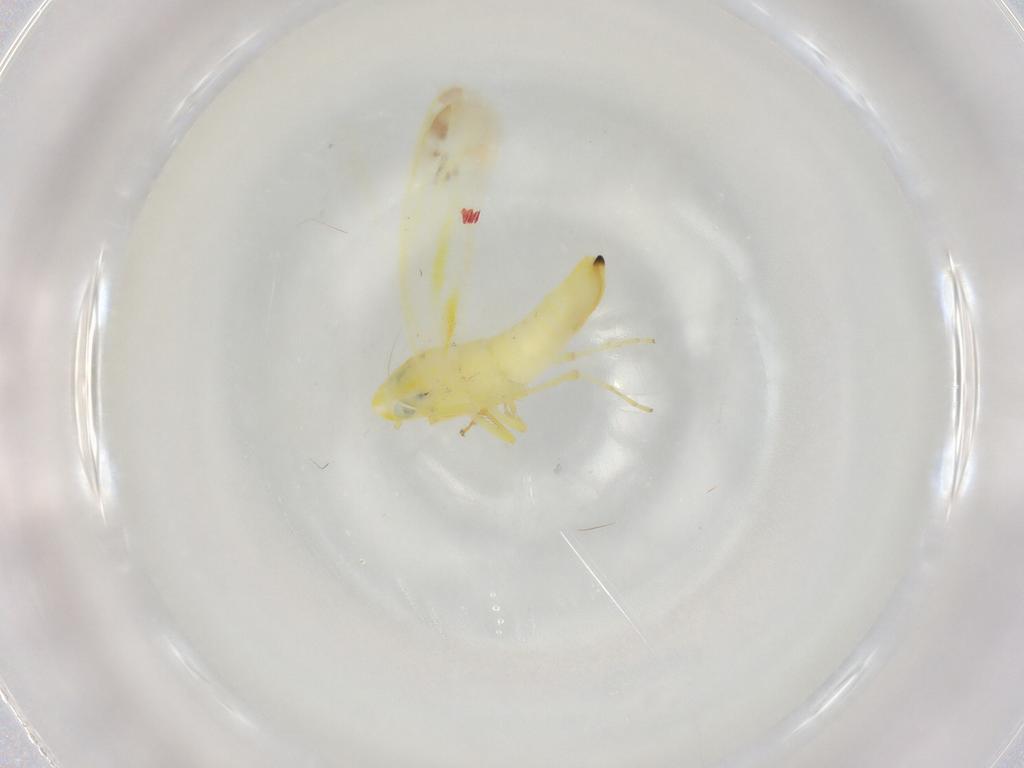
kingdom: Animalia
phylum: Arthropoda
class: Insecta
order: Hemiptera
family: Cicadellidae
